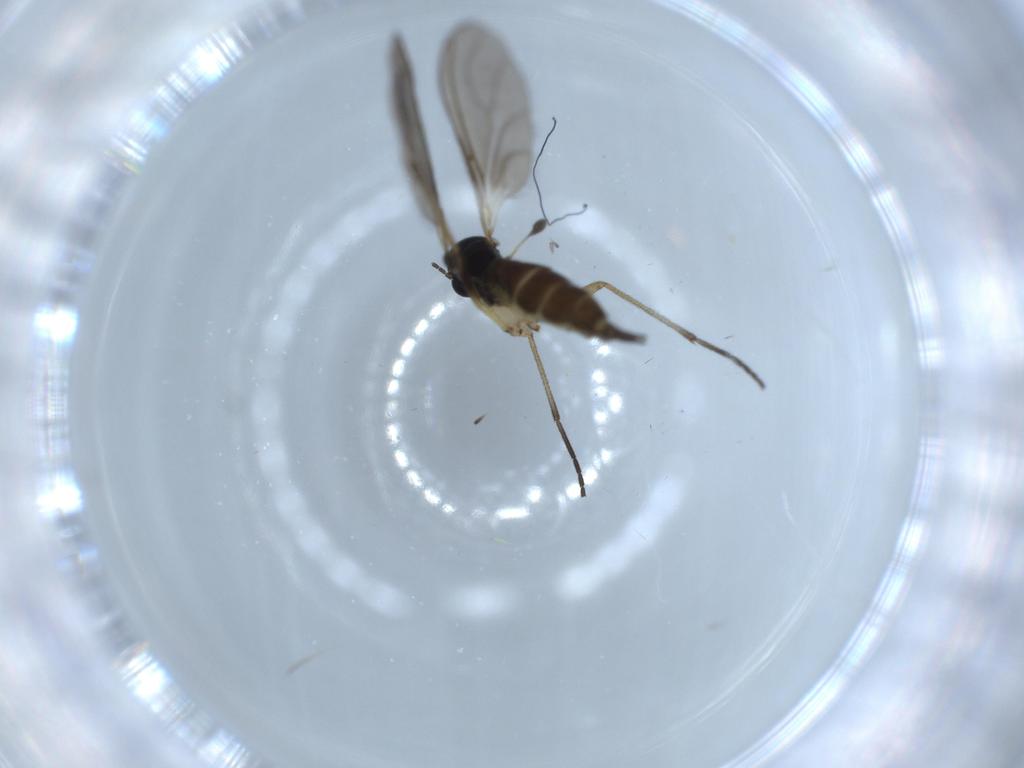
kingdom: Animalia
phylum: Arthropoda
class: Insecta
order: Diptera
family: Sciaridae
